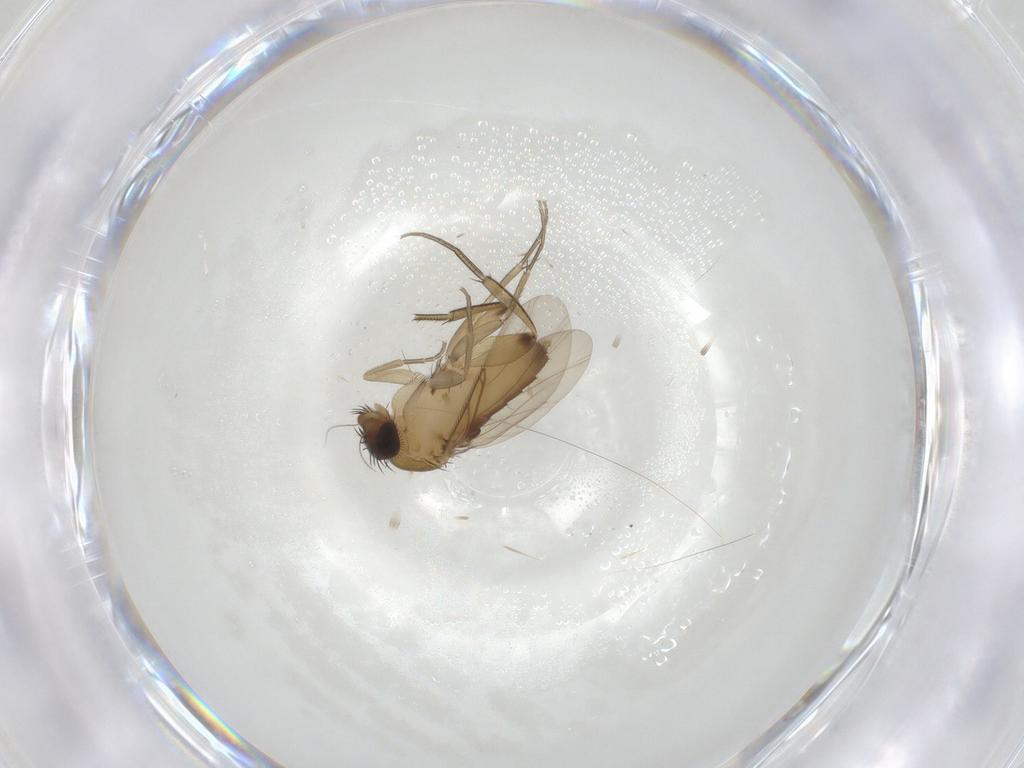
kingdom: Animalia
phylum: Arthropoda
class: Insecta
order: Diptera
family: Phoridae
